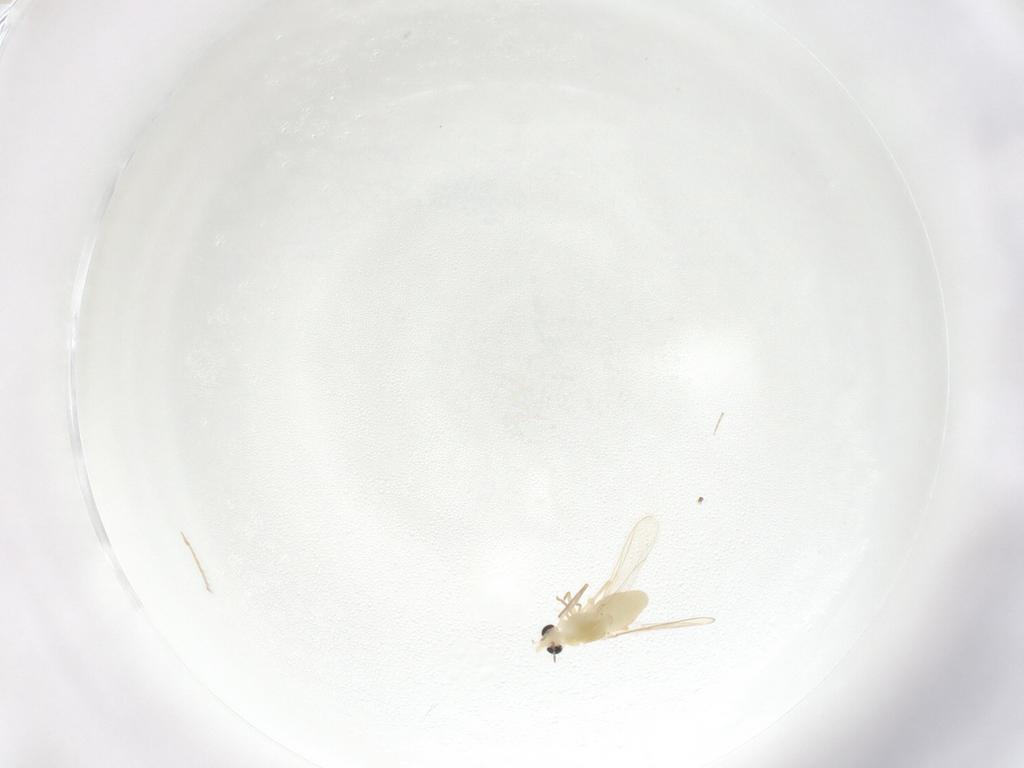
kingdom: Animalia
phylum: Arthropoda
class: Insecta
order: Diptera
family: Chironomidae
